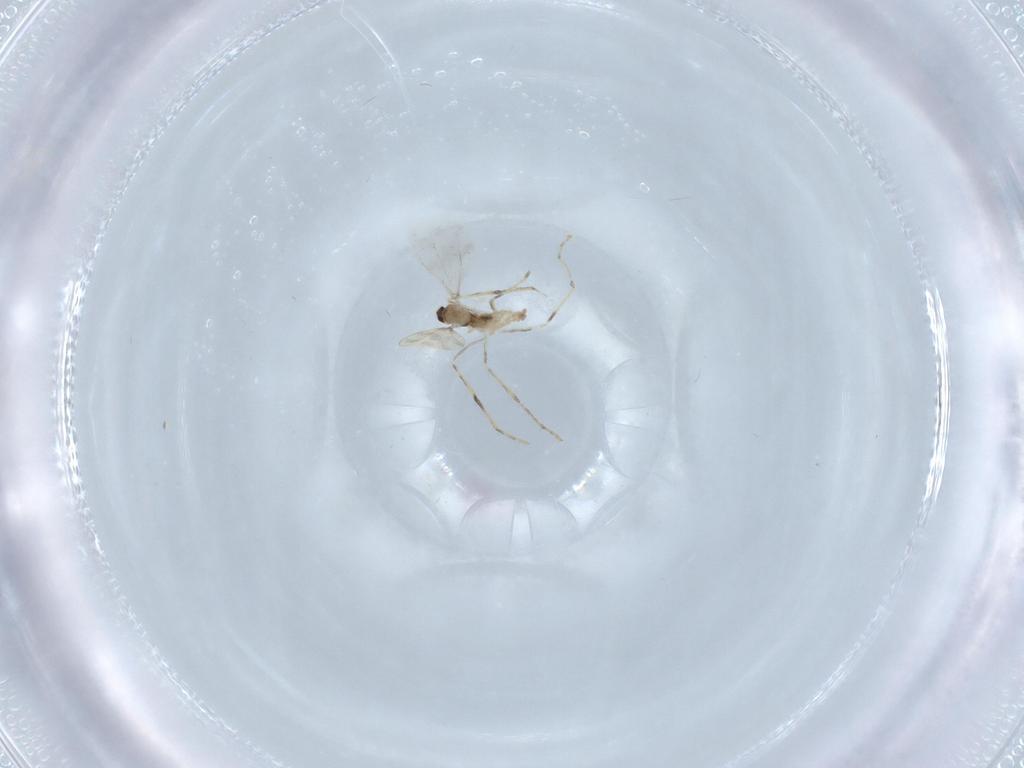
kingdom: Animalia
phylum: Arthropoda
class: Insecta
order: Diptera
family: Cecidomyiidae
